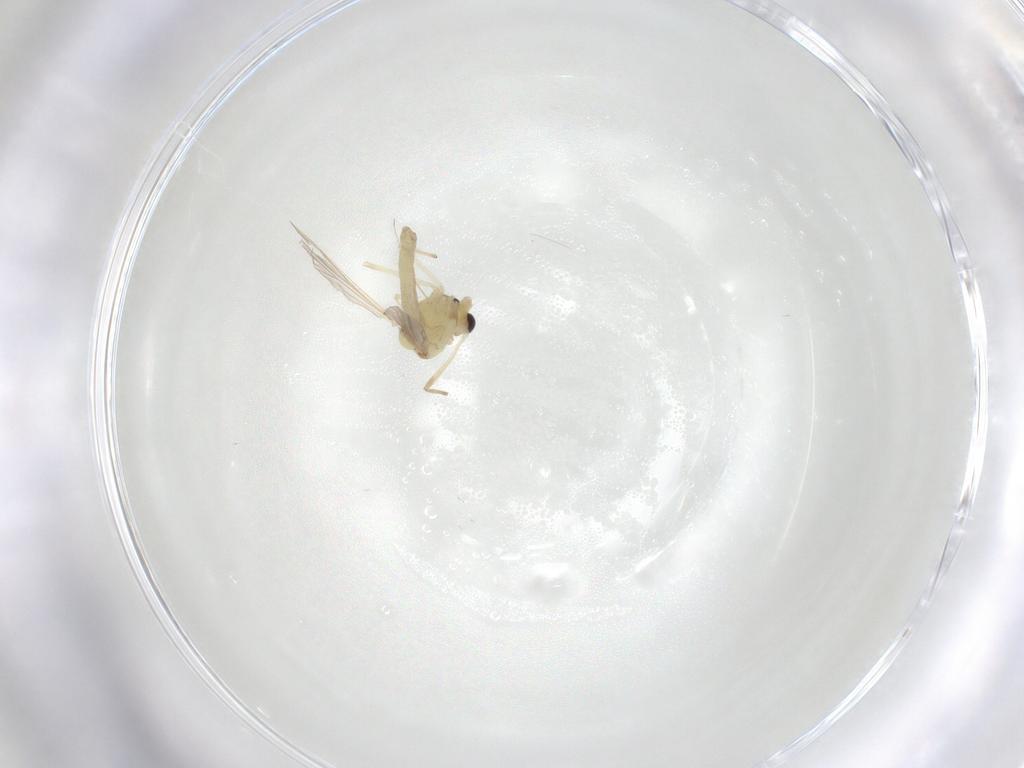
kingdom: Animalia
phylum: Arthropoda
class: Insecta
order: Diptera
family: Chironomidae
